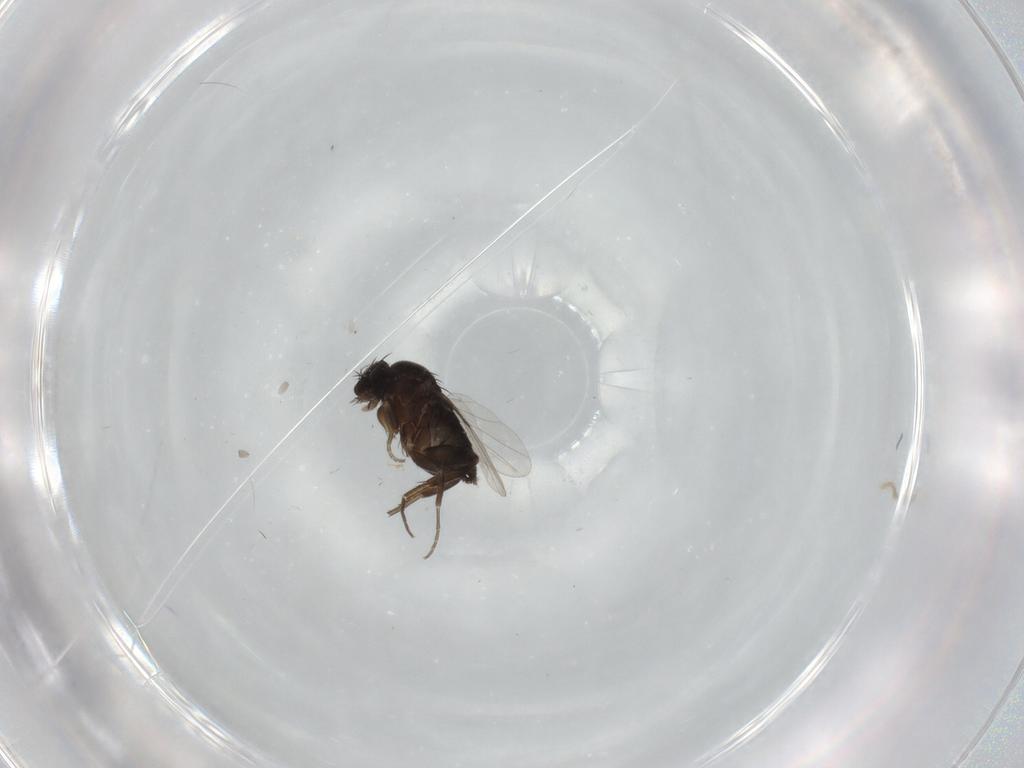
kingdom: Animalia
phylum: Arthropoda
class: Insecta
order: Diptera
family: Phoridae
